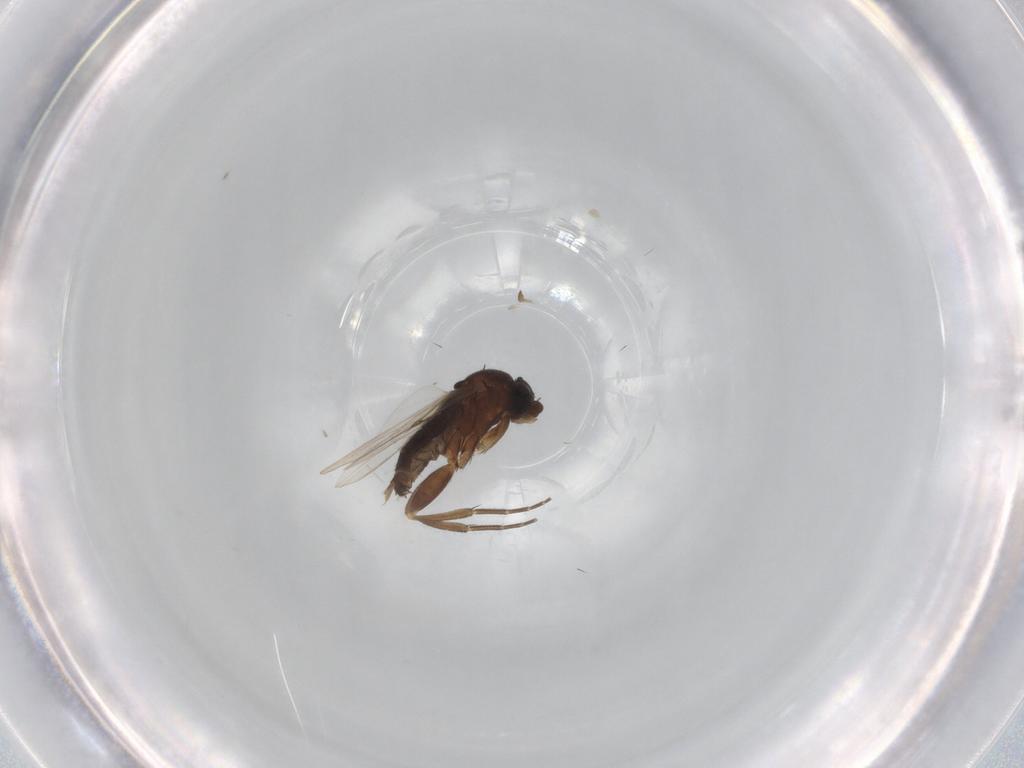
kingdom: Animalia
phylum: Arthropoda
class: Insecta
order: Diptera
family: Phoridae
